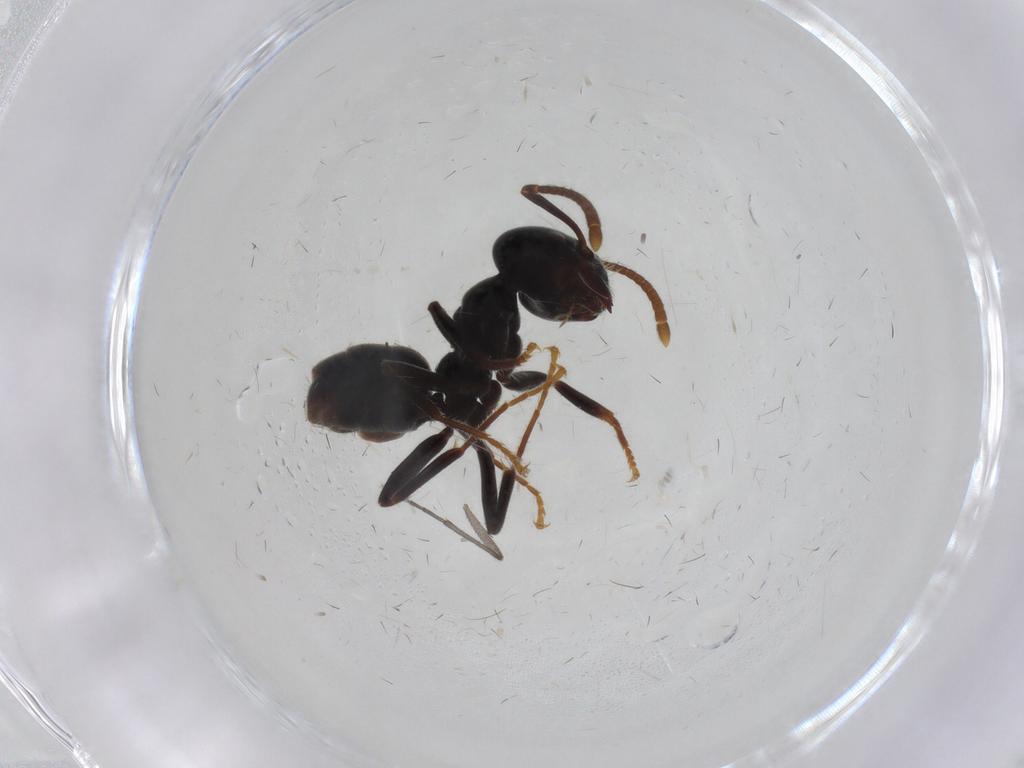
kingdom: Animalia
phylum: Arthropoda
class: Insecta
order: Hymenoptera
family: Formicidae
